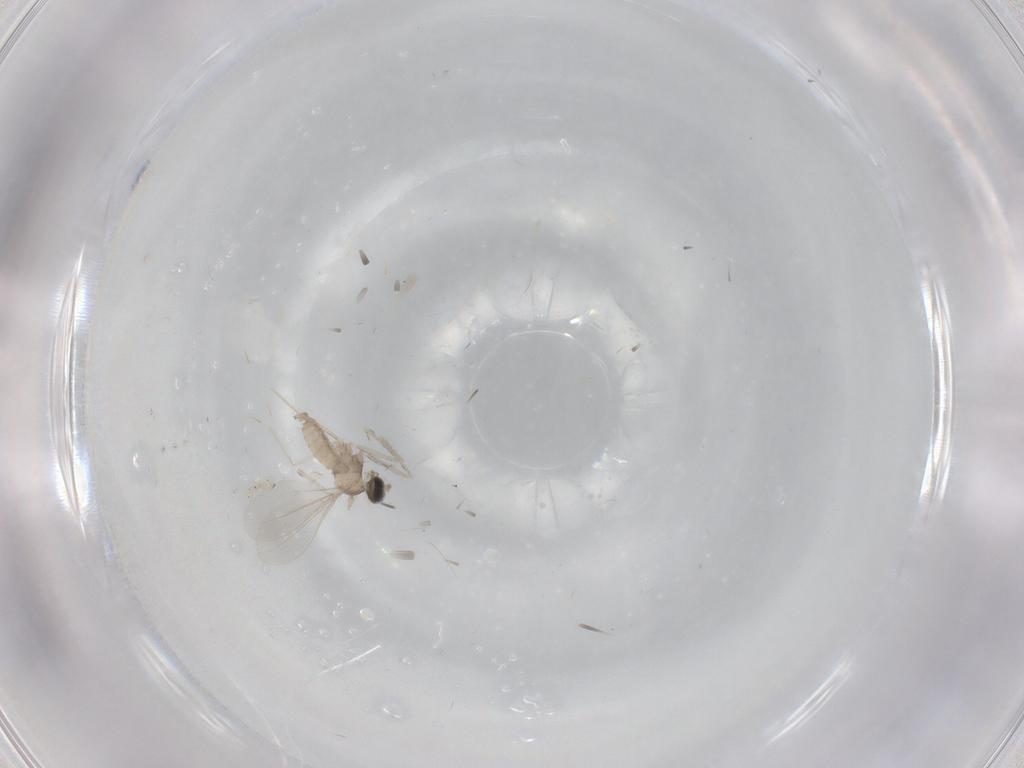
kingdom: Animalia
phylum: Arthropoda
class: Insecta
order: Diptera
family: Cecidomyiidae
